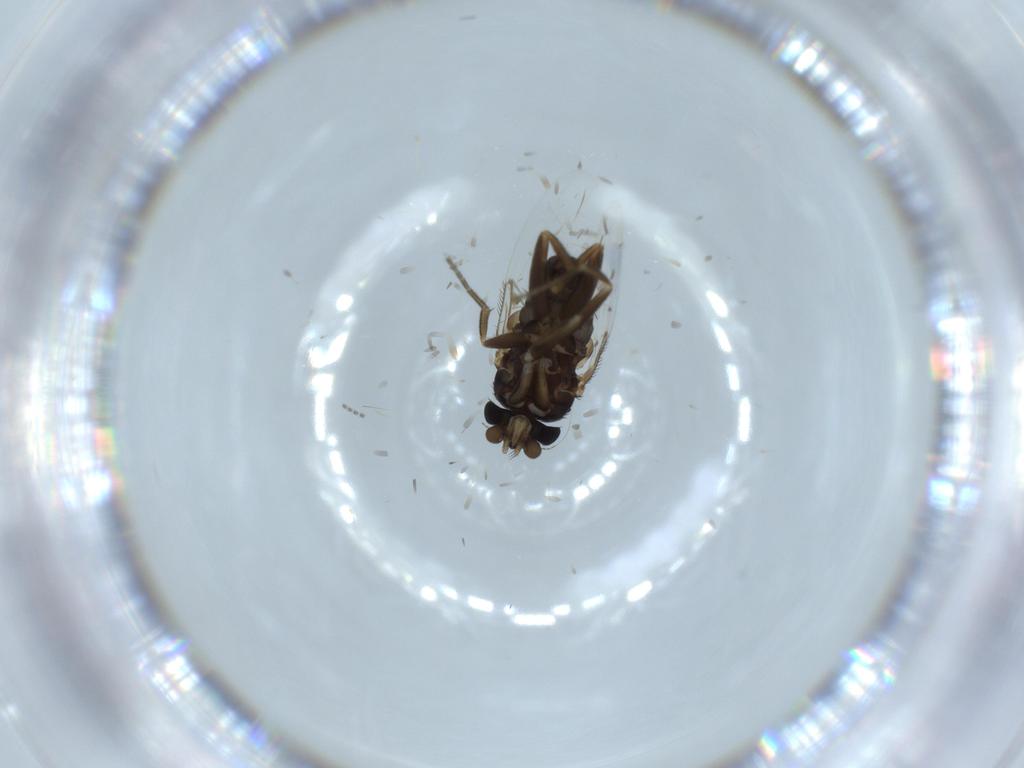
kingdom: Animalia
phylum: Arthropoda
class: Insecta
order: Diptera
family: Phoridae
